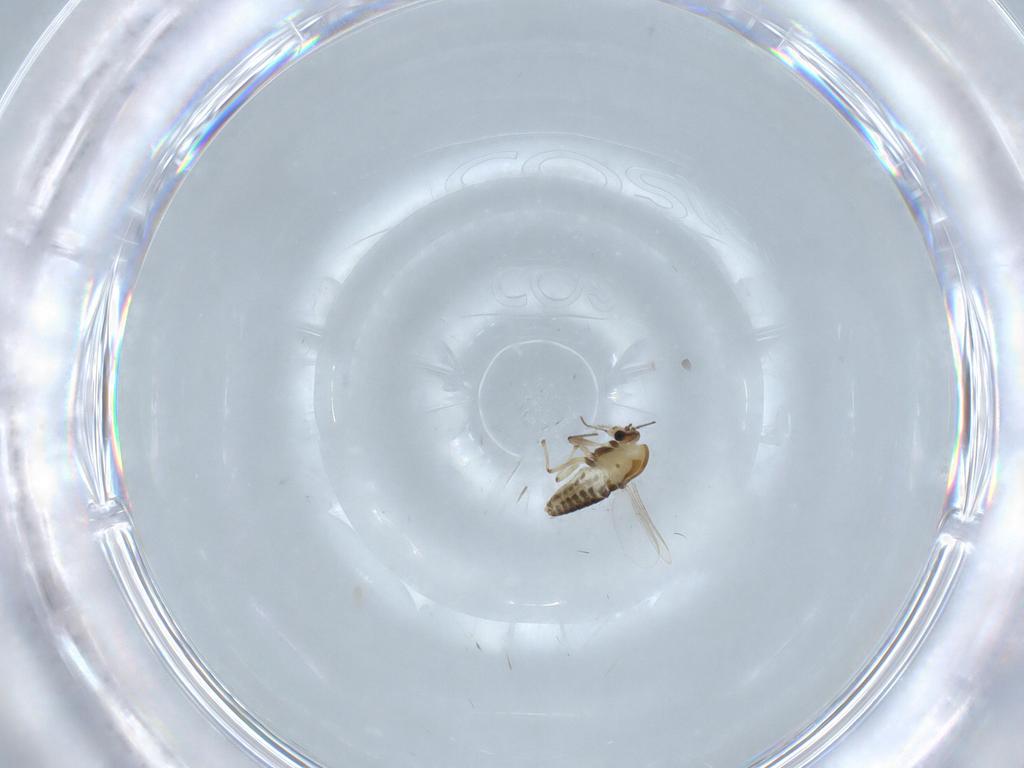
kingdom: Animalia
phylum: Arthropoda
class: Insecta
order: Diptera
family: Chironomidae
